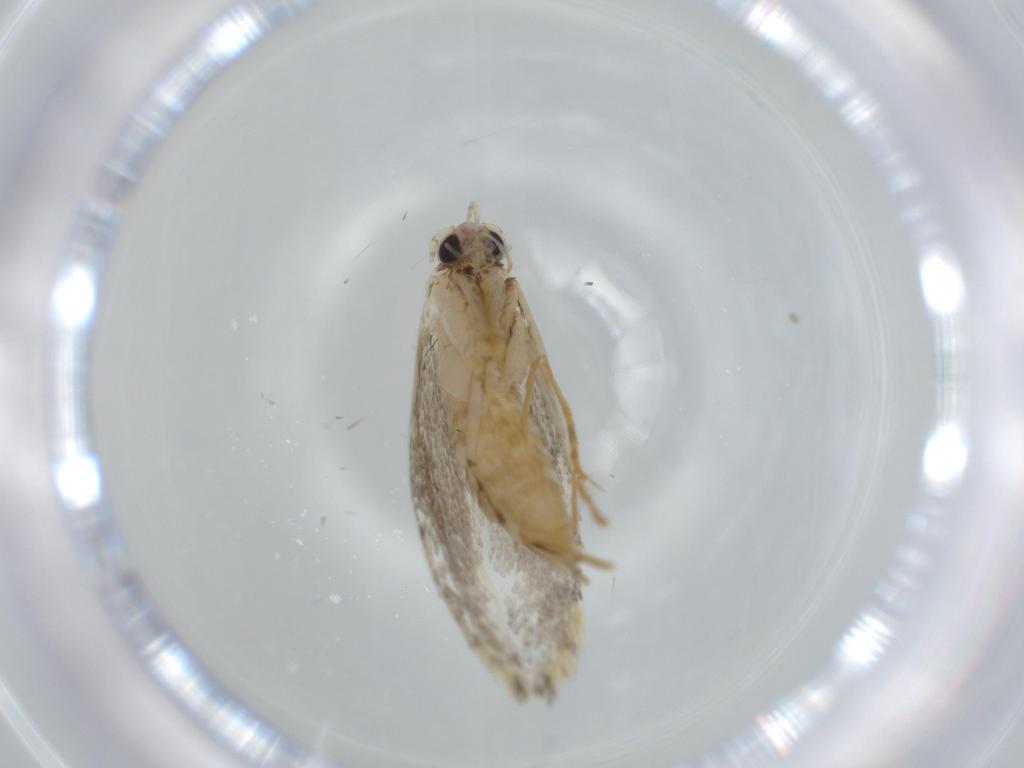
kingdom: Animalia
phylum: Arthropoda
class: Insecta
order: Lepidoptera
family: Tineidae
